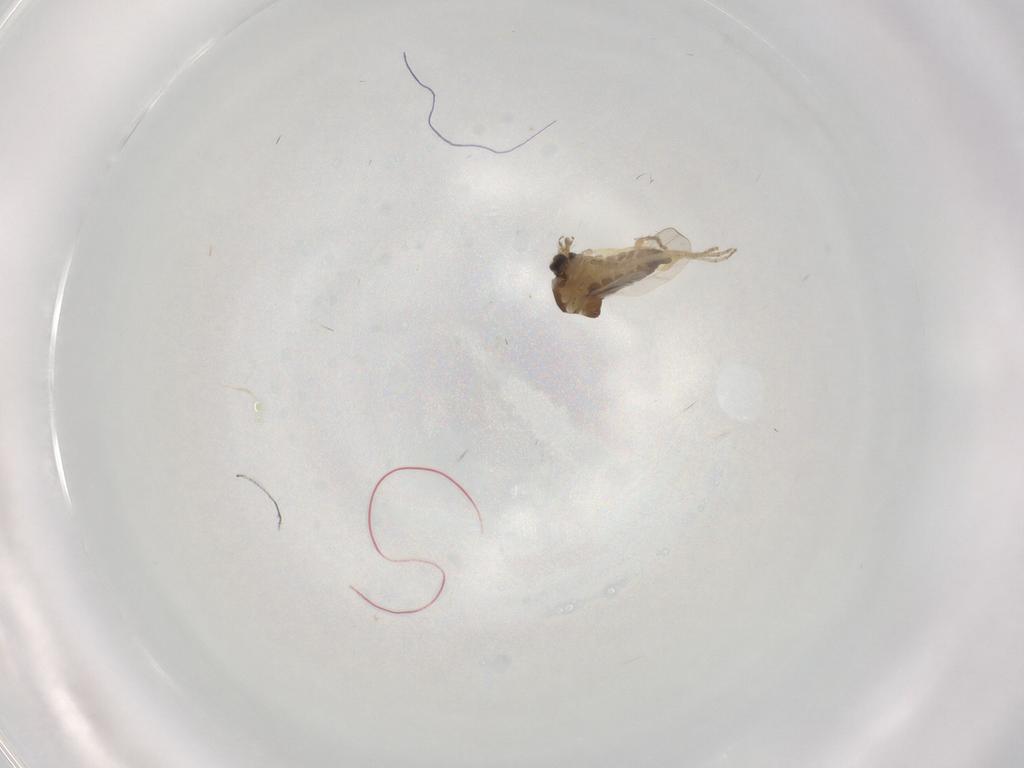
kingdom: Animalia
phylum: Arthropoda
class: Insecta
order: Diptera
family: Ceratopogonidae
